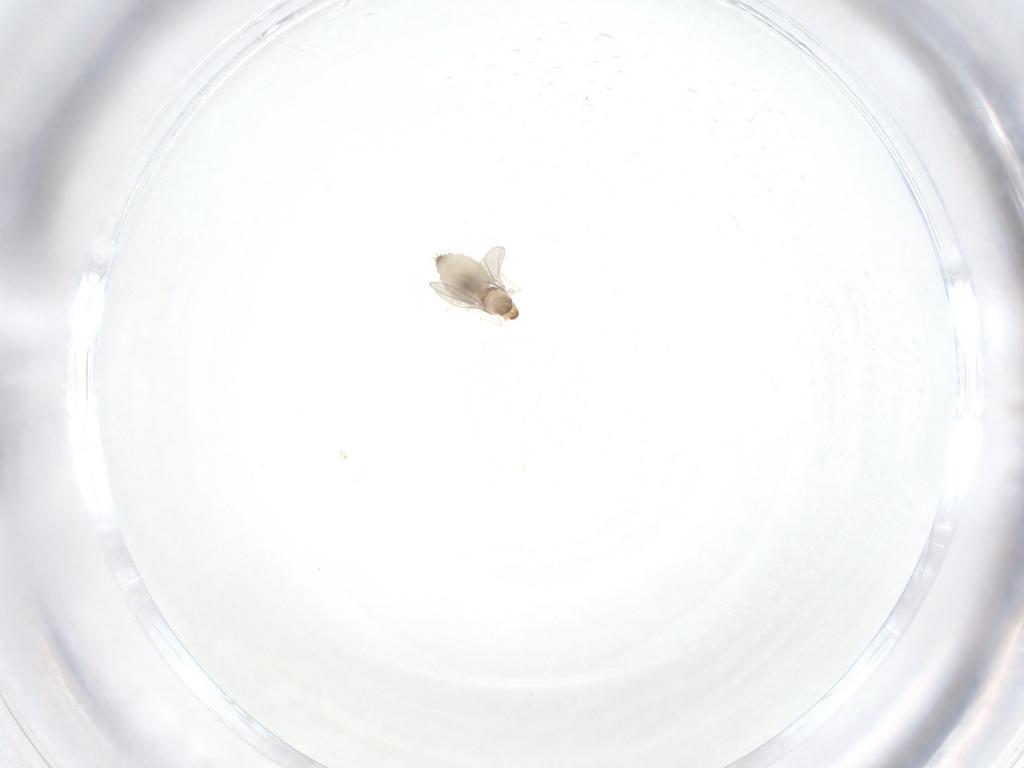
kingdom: Animalia
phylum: Arthropoda
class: Insecta
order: Diptera
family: Cecidomyiidae
